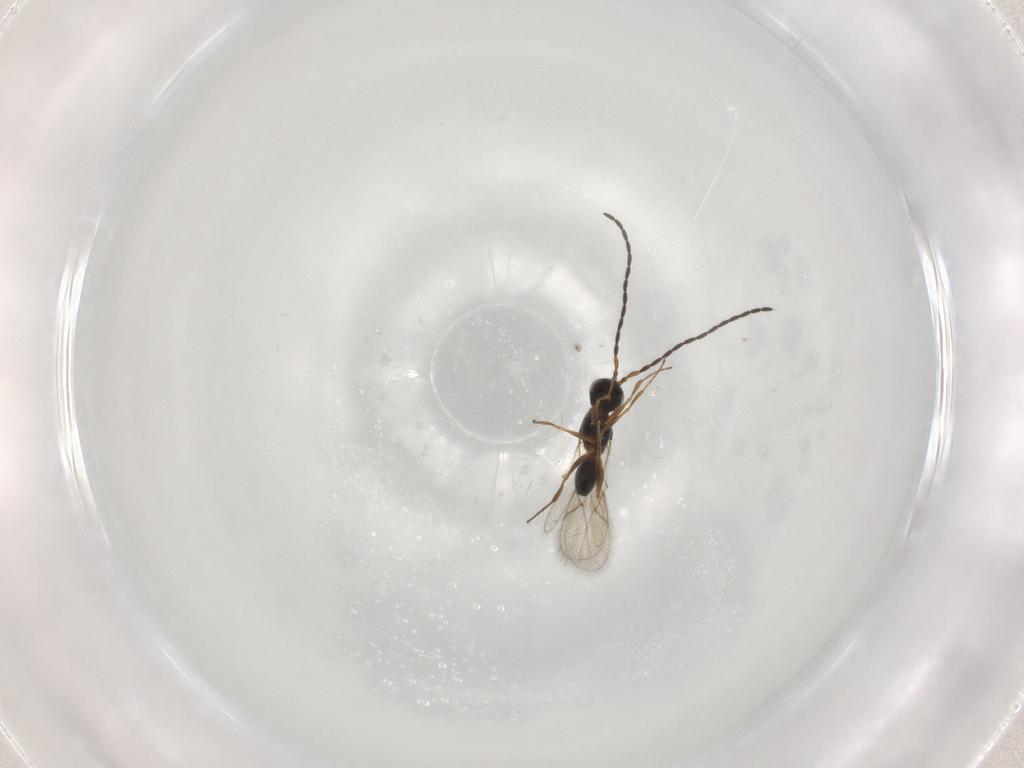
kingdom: Animalia
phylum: Arthropoda
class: Insecta
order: Hymenoptera
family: Figitidae
